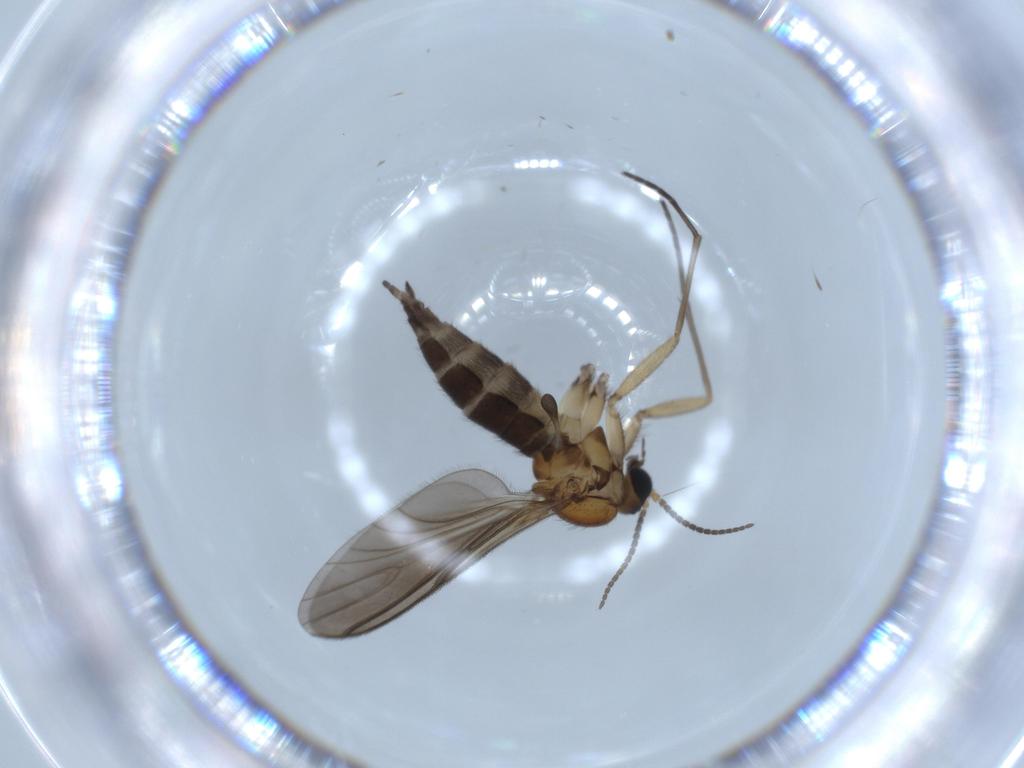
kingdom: Animalia
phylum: Arthropoda
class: Insecta
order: Diptera
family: Sciaridae
